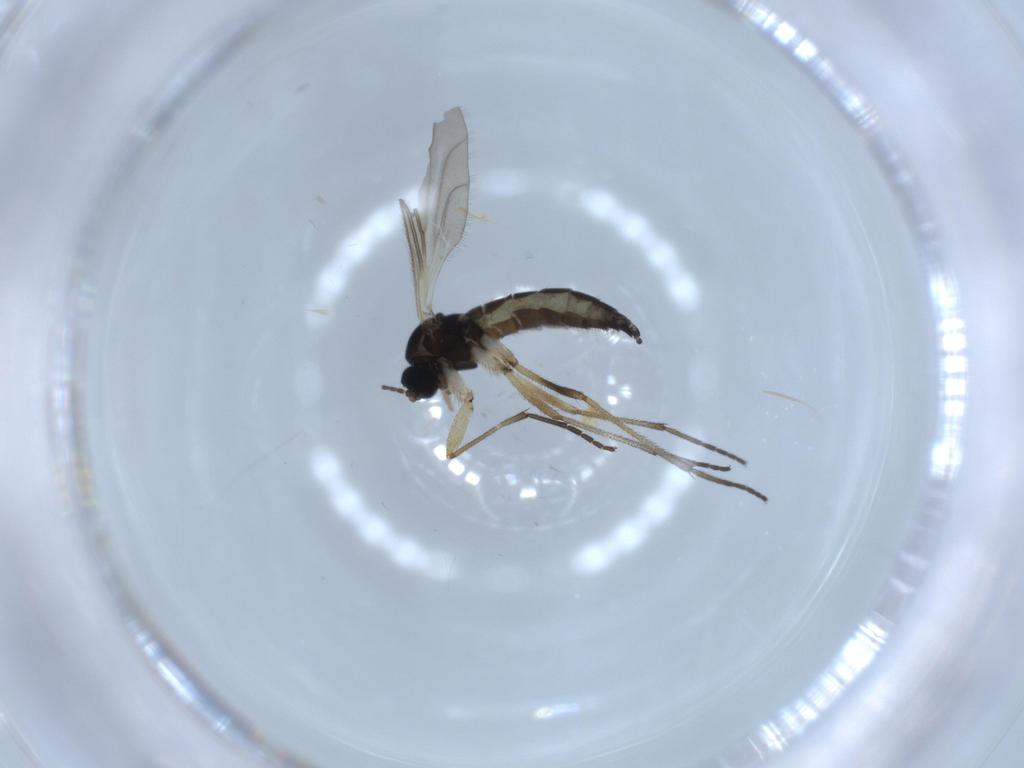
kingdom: Animalia
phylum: Arthropoda
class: Insecta
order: Diptera
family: Sciaridae
